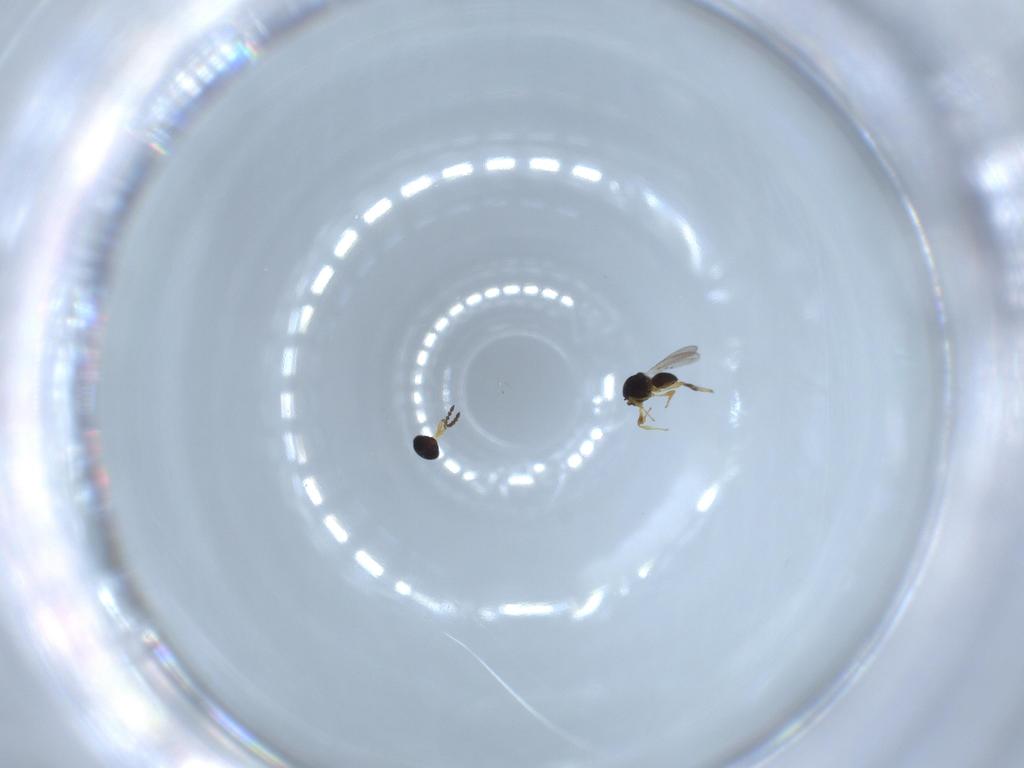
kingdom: Animalia
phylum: Arthropoda
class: Insecta
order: Hymenoptera
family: Platygastridae
